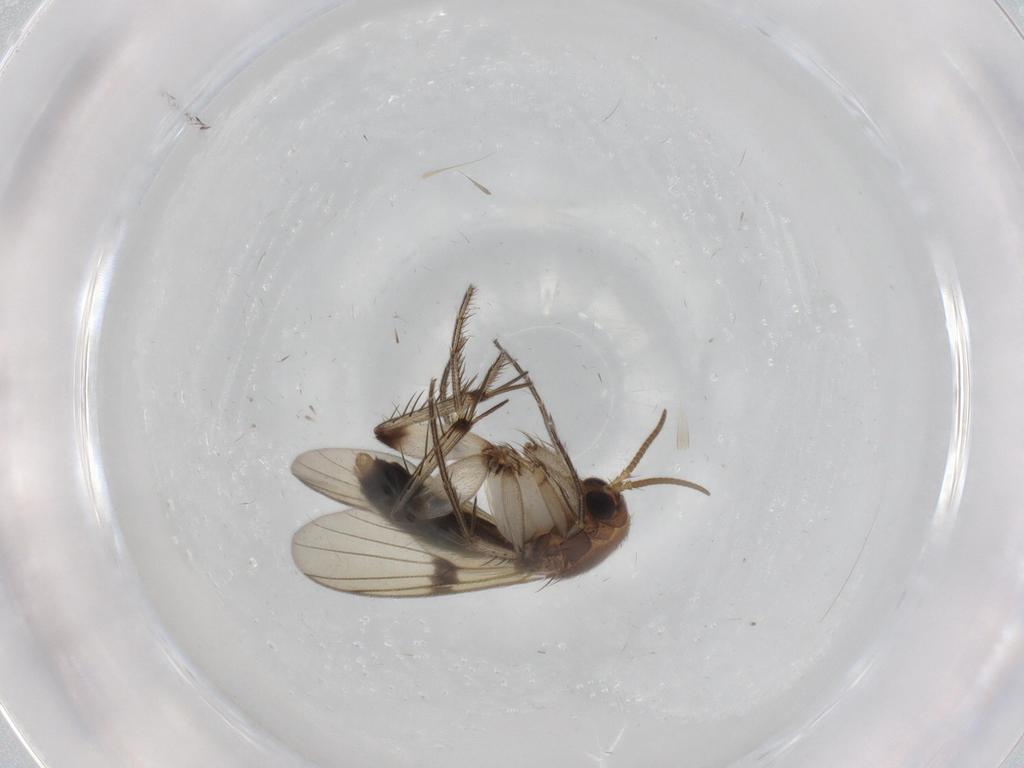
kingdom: Animalia
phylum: Arthropoda
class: Insecta
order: Diptera
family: Mycetophilidae
